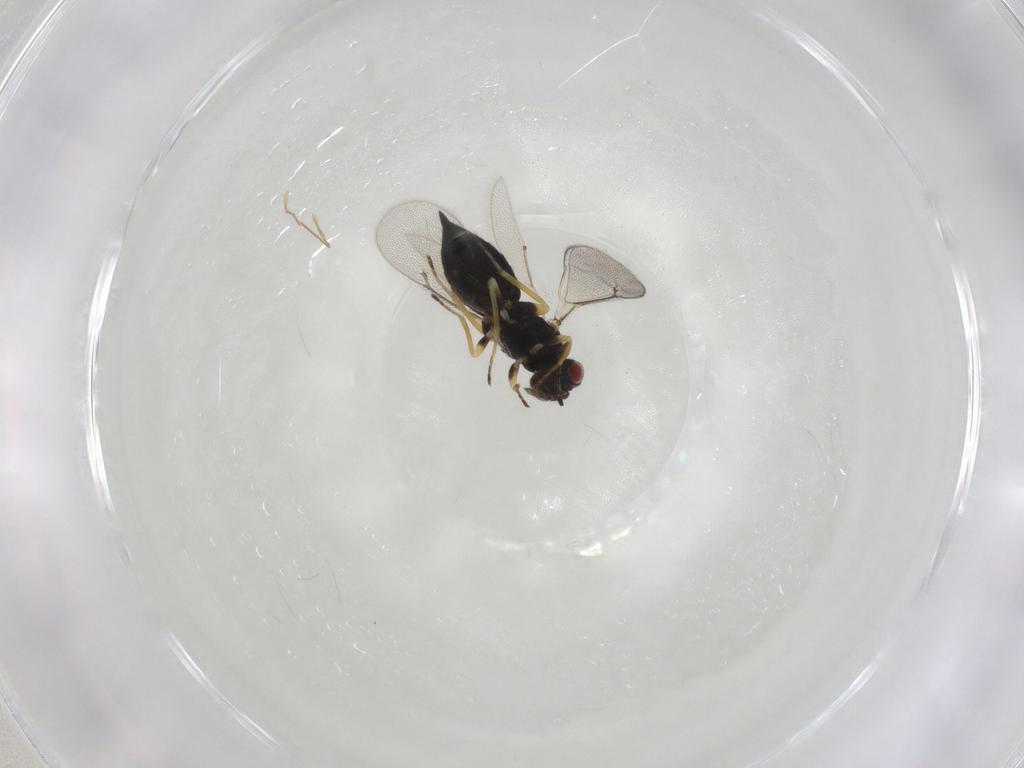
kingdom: Animalia
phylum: Arthropoda
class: Insecta
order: Hymenoptera
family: Eulophidae
